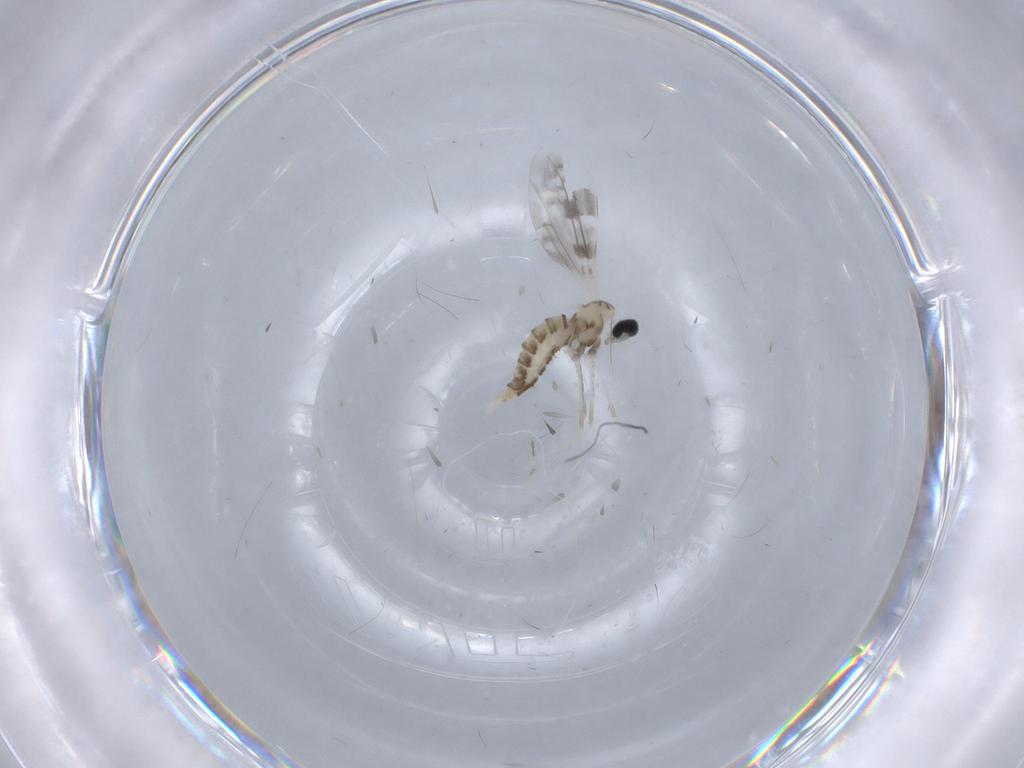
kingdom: Animalia
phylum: Arthropoda
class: Insecta
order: Diptera
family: Cecidomyiidae
